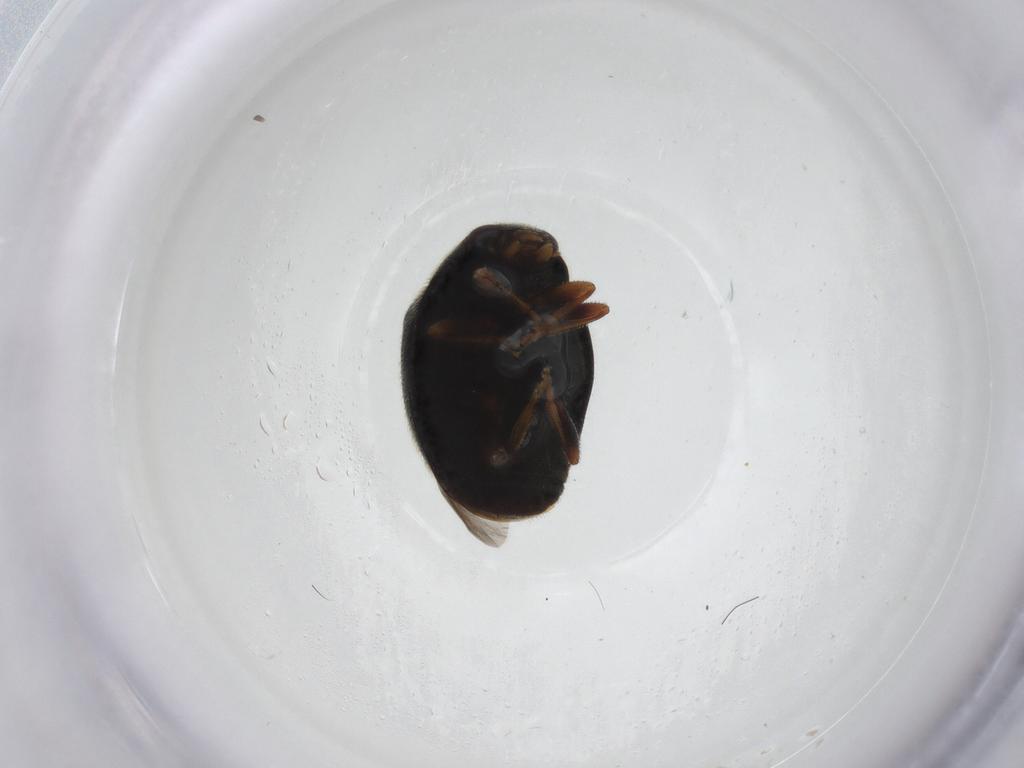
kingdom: Animalia
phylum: Arthropoda
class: Insecta
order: Coleoptera
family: Coccinellidae
